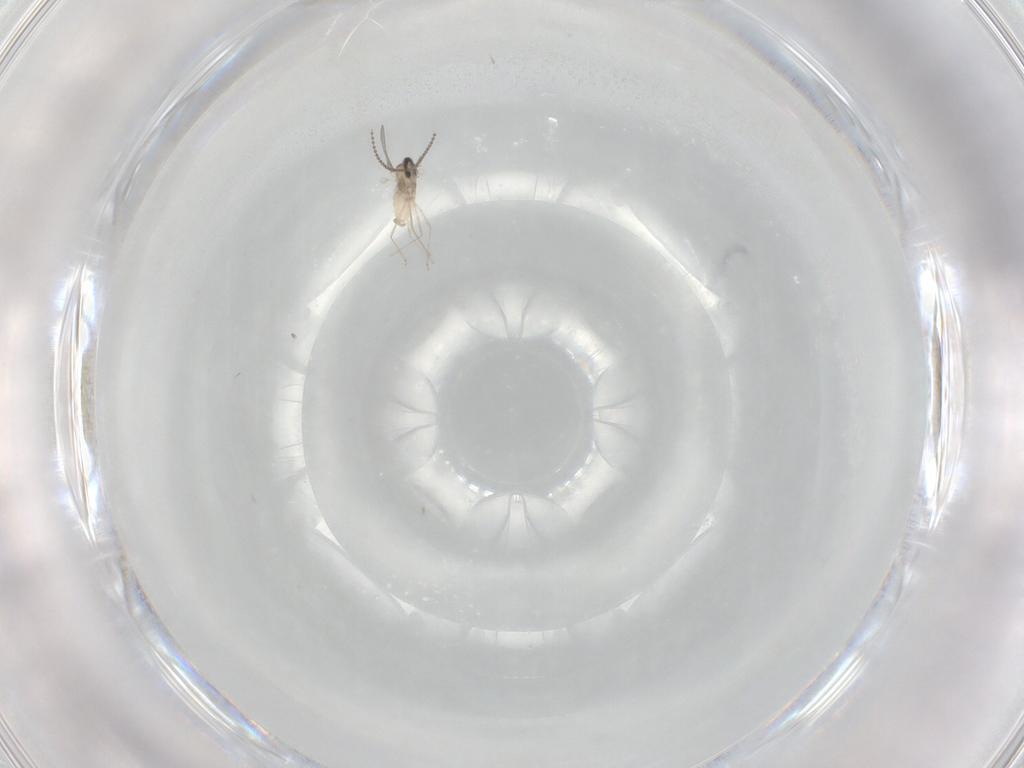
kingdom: Animalia
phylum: Arthropoda
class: Insecta
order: Diptera
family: Cecidomyiidae
